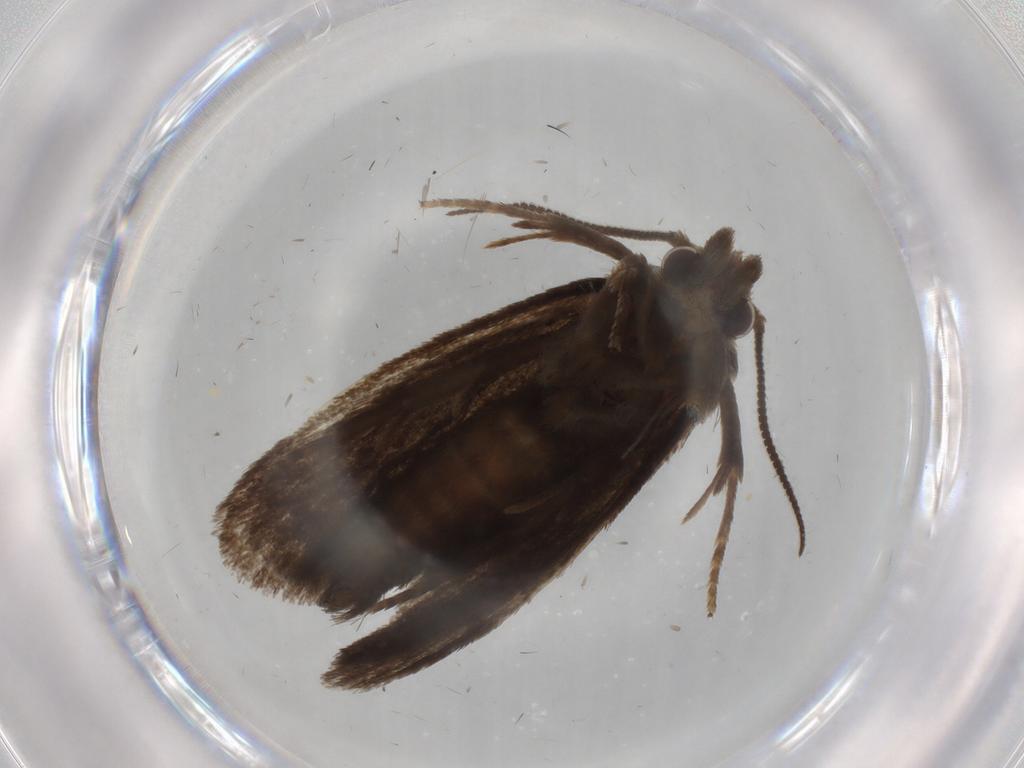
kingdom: Animalia
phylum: Arthropoda
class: Insecta
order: Lepidoptera
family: Tineidae
